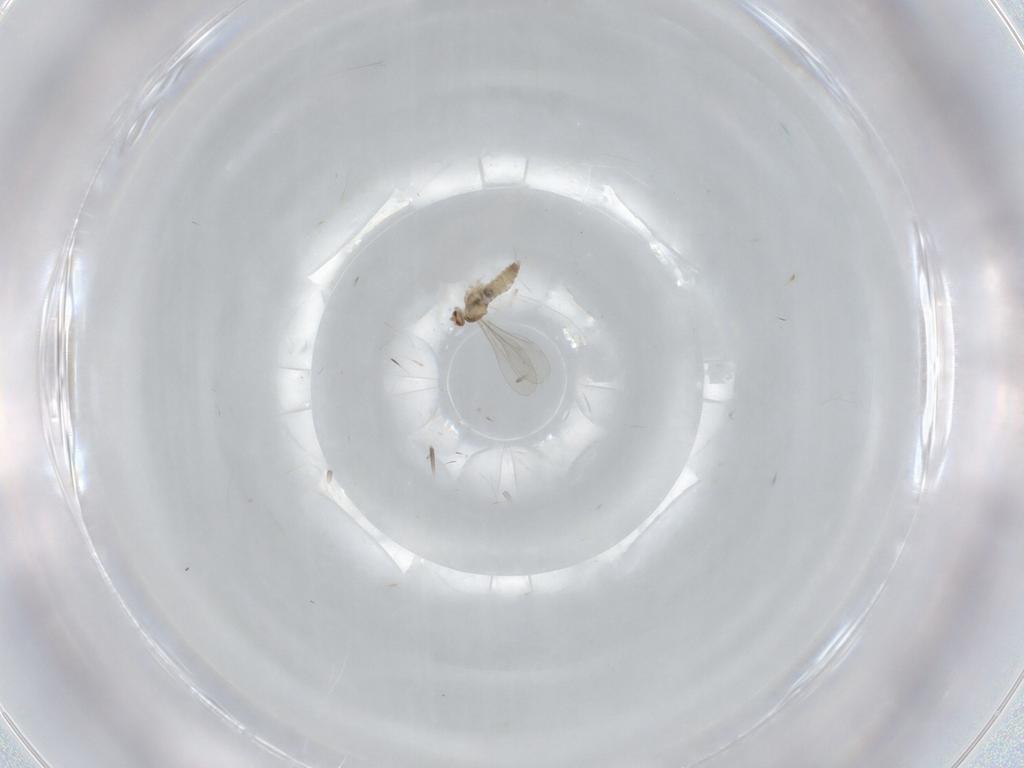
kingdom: Animalia
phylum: Arthropoda
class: Insecta
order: Diptera
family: Cecidomyiidae
